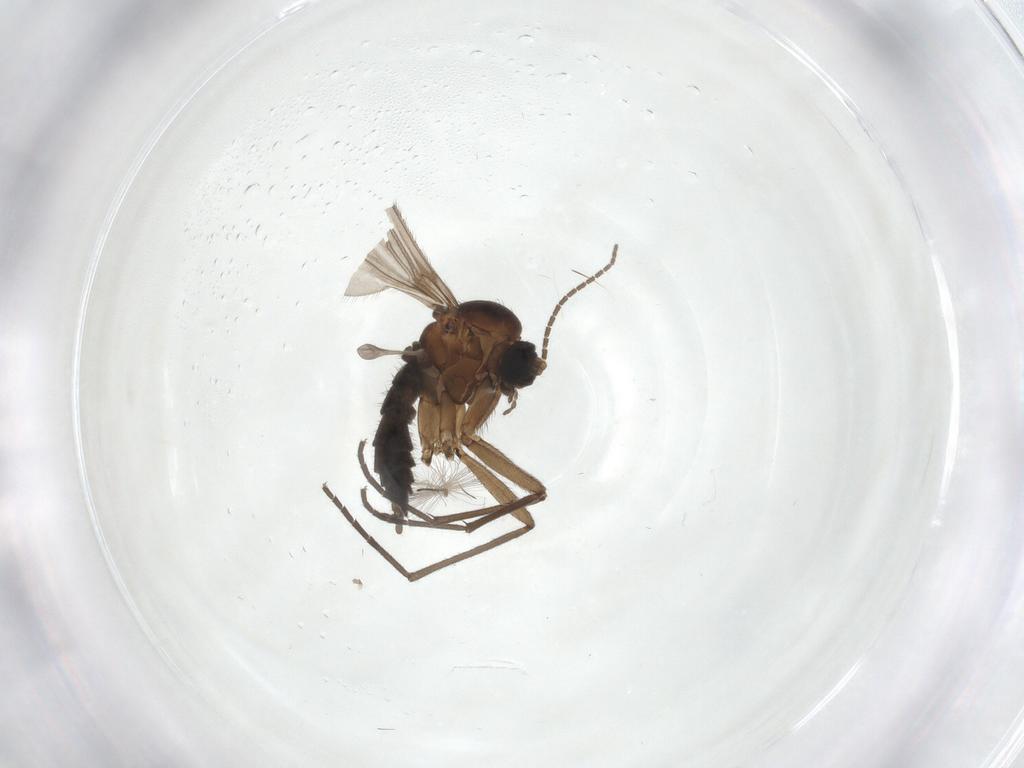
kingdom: Animalia
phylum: Arthropoda
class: Insecta
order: Diptera
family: Sciaridae
